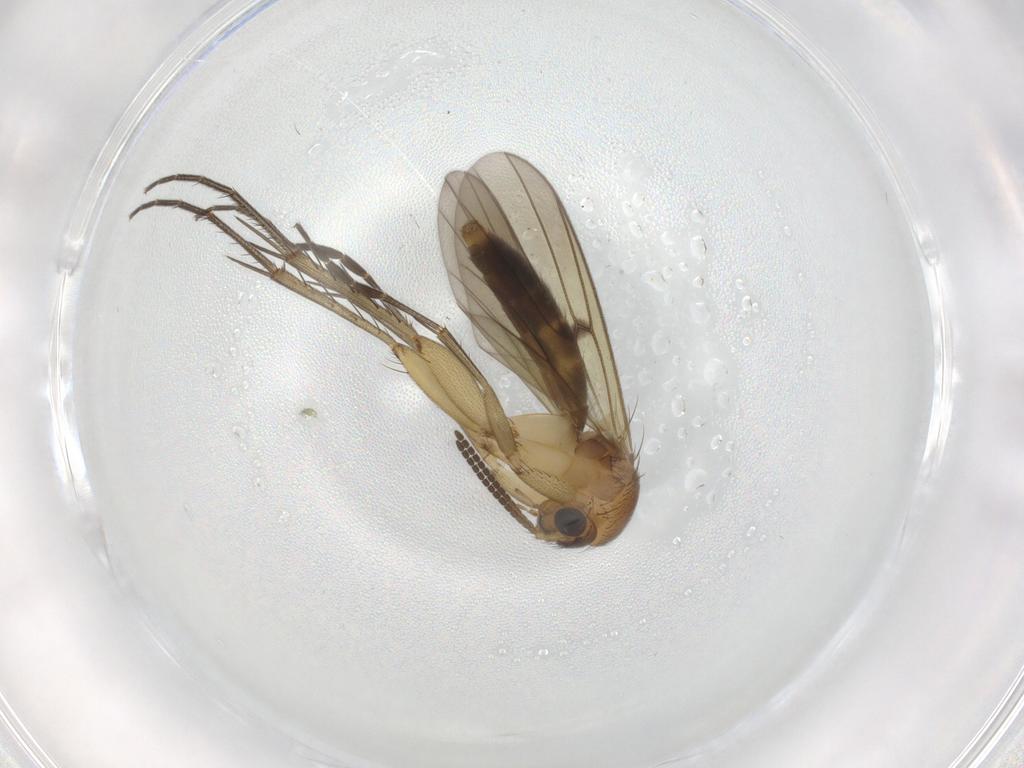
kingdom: Animalia
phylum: Arthropoda
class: Insecta
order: Diptera
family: Mycetophilidae
